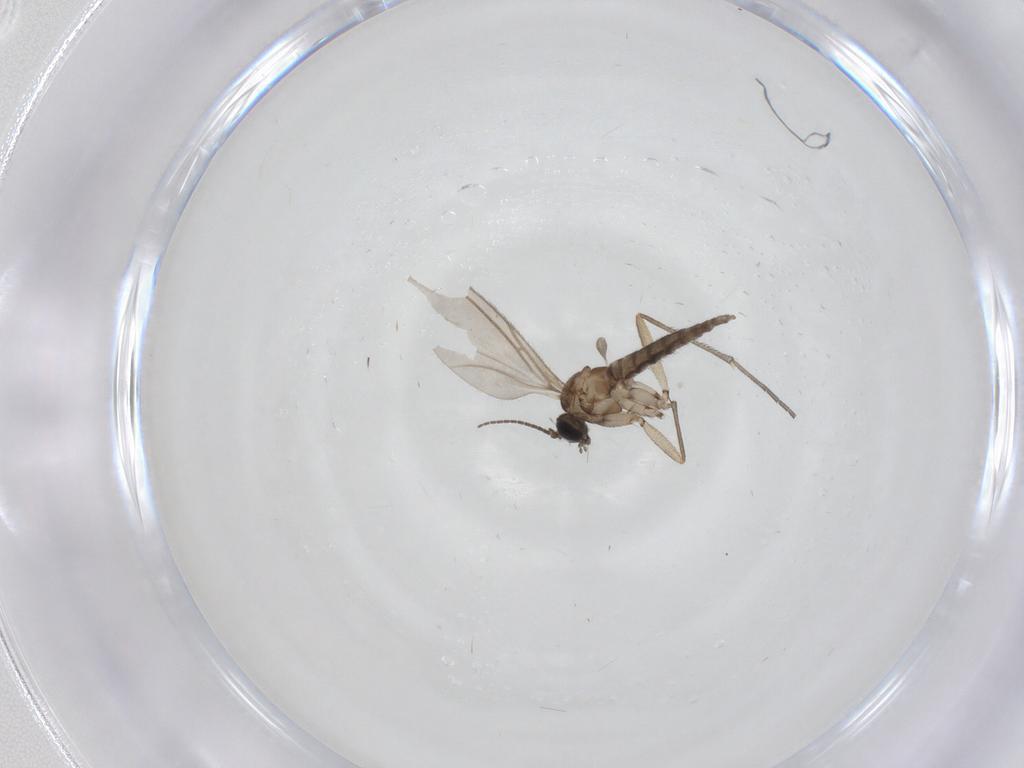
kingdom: Animalia
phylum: Arthropoda
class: Insecta
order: Diptera
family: Sciaridae
